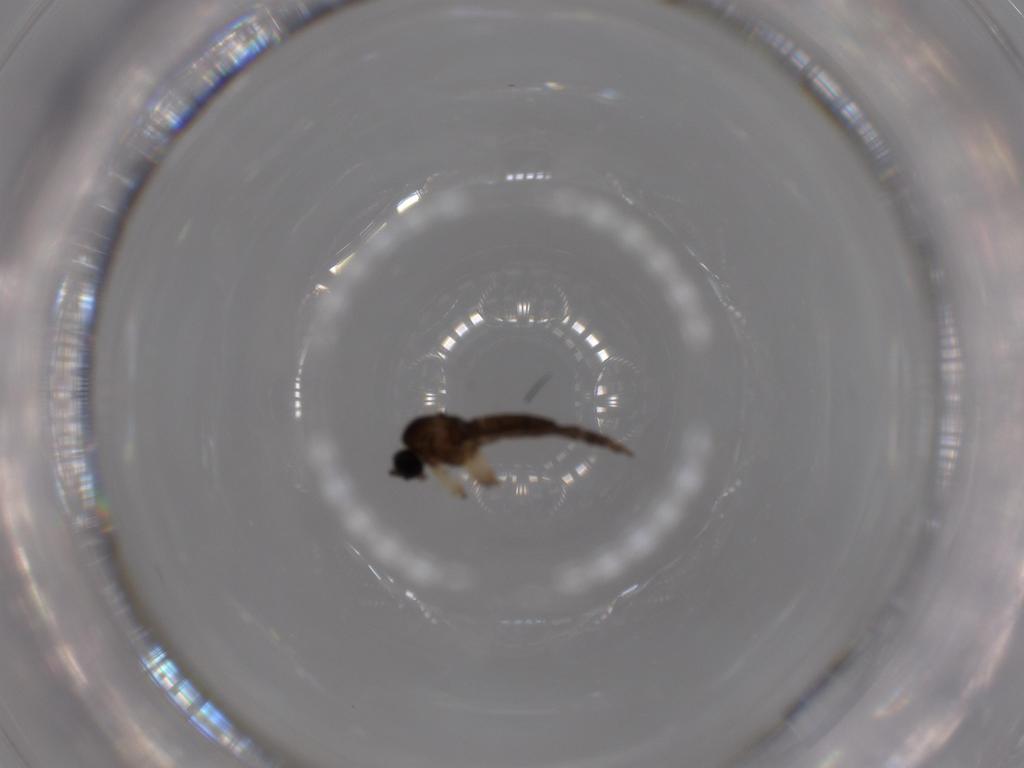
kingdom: Animalia
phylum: Arthropoda
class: Insecta
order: Diptera
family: Sciaridae
